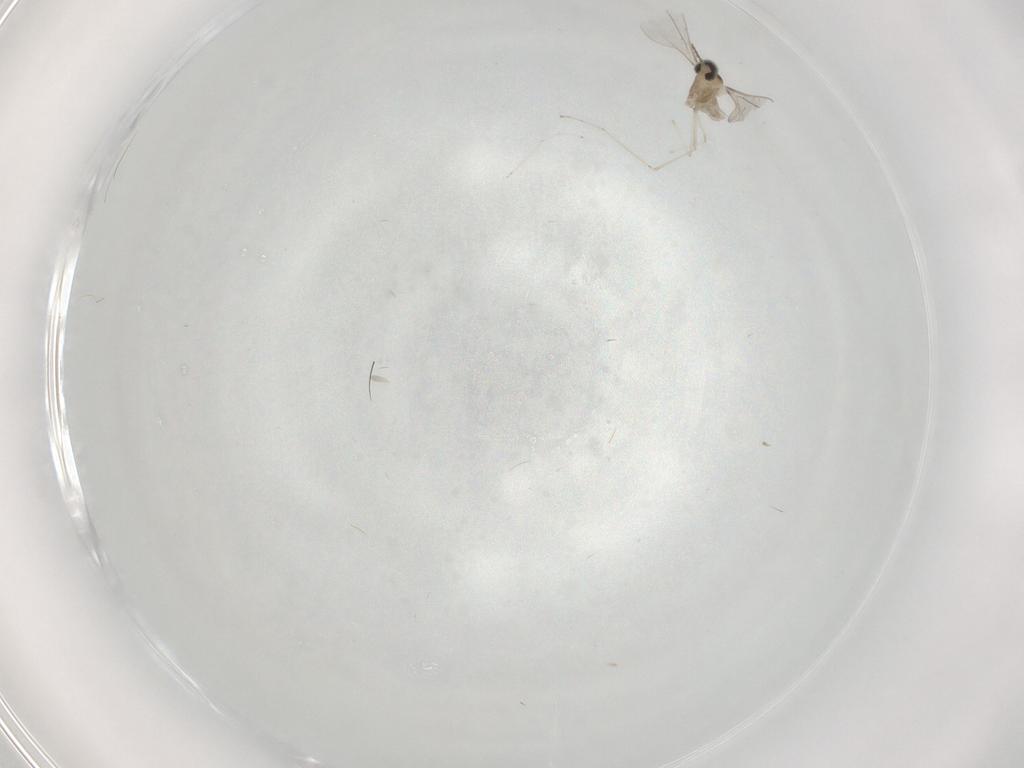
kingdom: Animalia
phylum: Arthropoda
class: Insecta
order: Diptera
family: Cecidomyiidae
